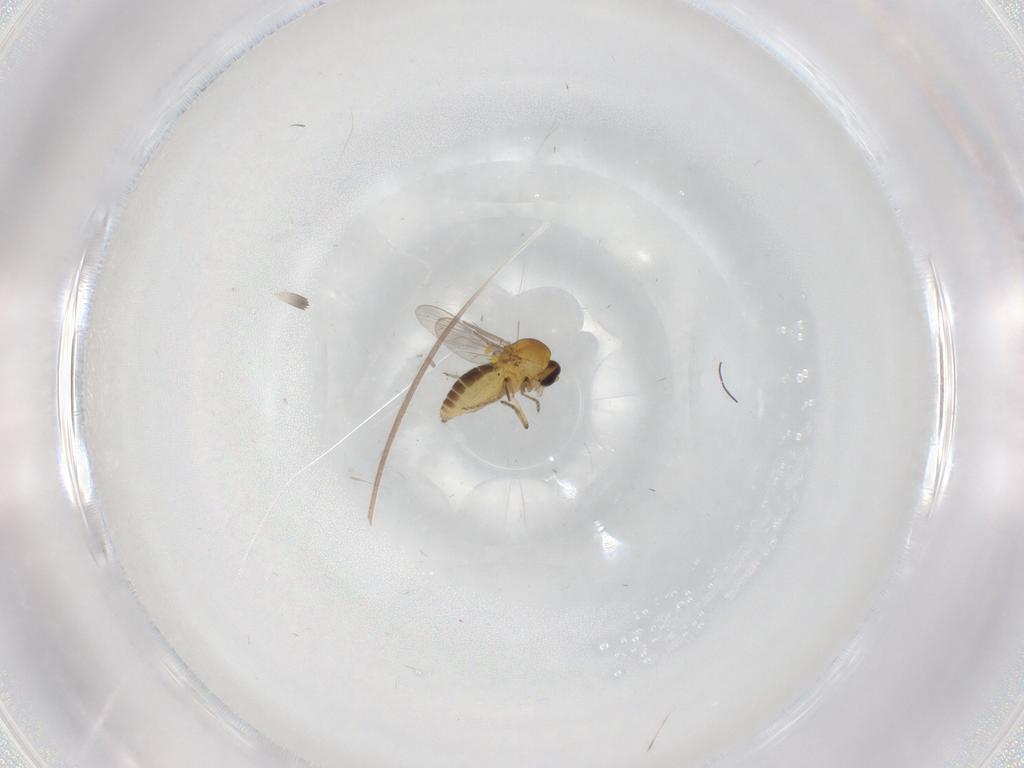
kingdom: Animalia
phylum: Arthropoda
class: Insecta
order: Diptera
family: Ceratopogonidae
